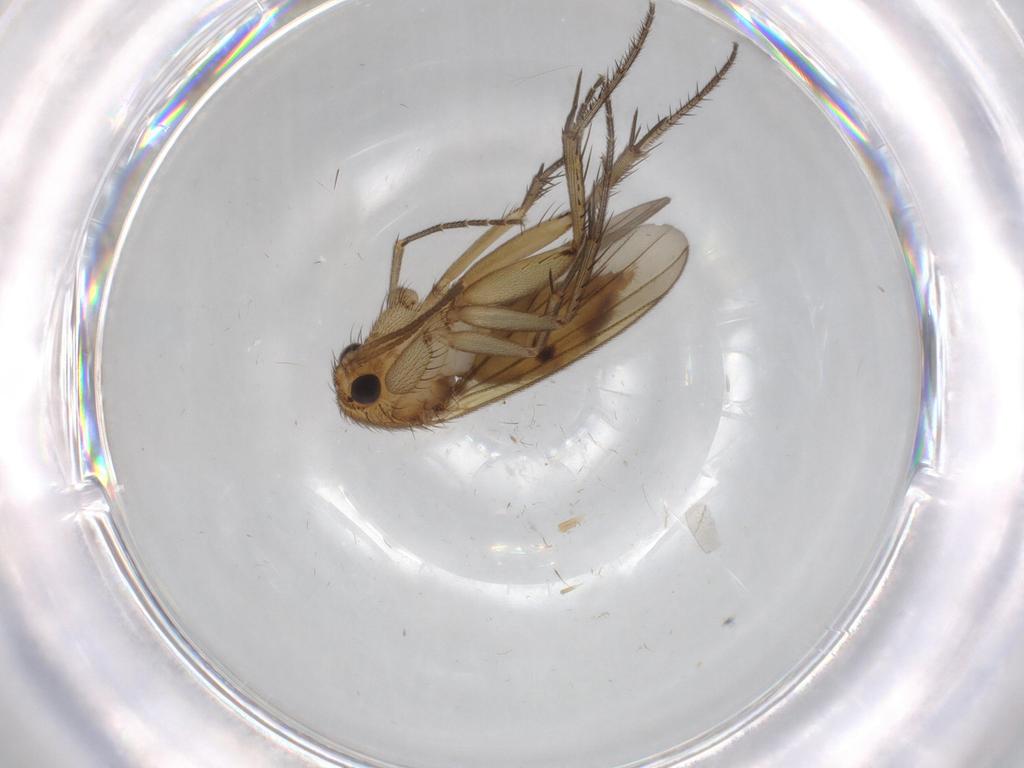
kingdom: Animalia
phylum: Arthropoda
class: Insecta
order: Diptera
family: Cecidomyiidae
